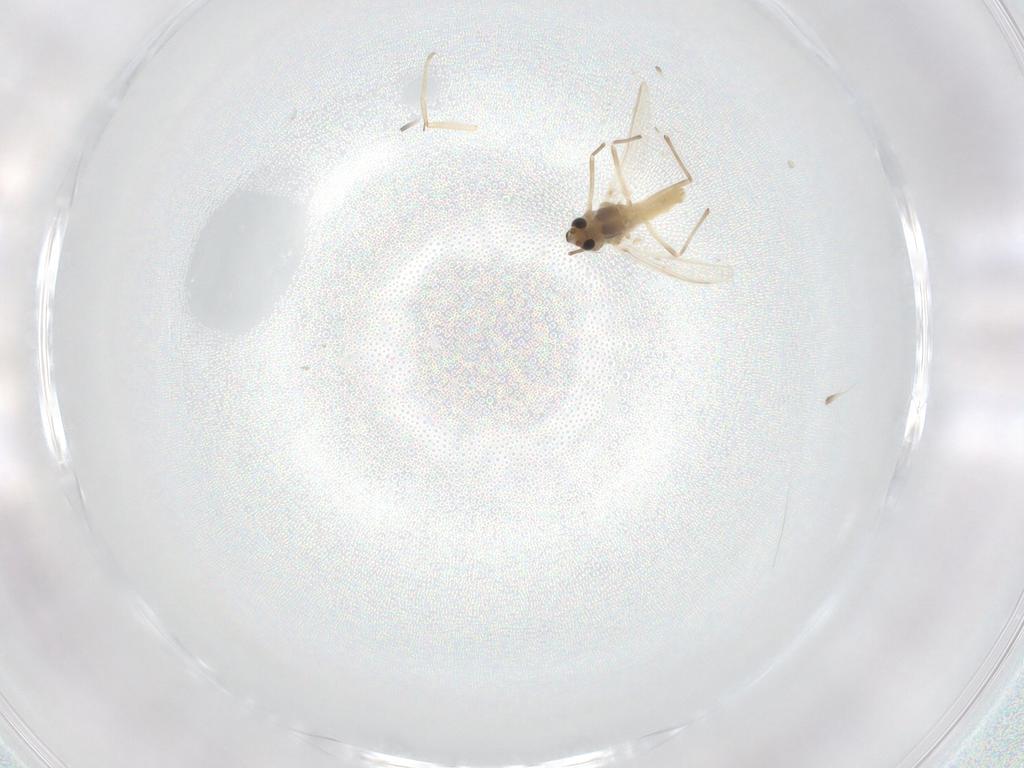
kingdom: Animalia
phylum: Arthropoda
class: Insecta
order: Diptera
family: Chironomidae
